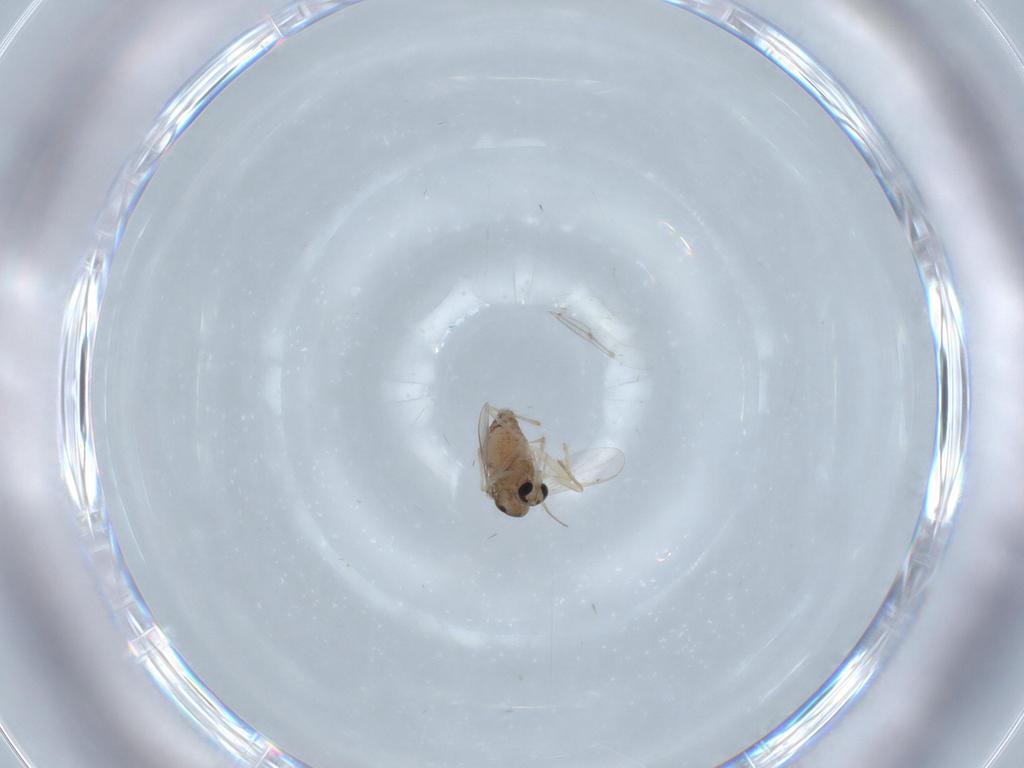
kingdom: Animalia
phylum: Arthropoda
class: Insecta
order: Diptera
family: Chironomidae
